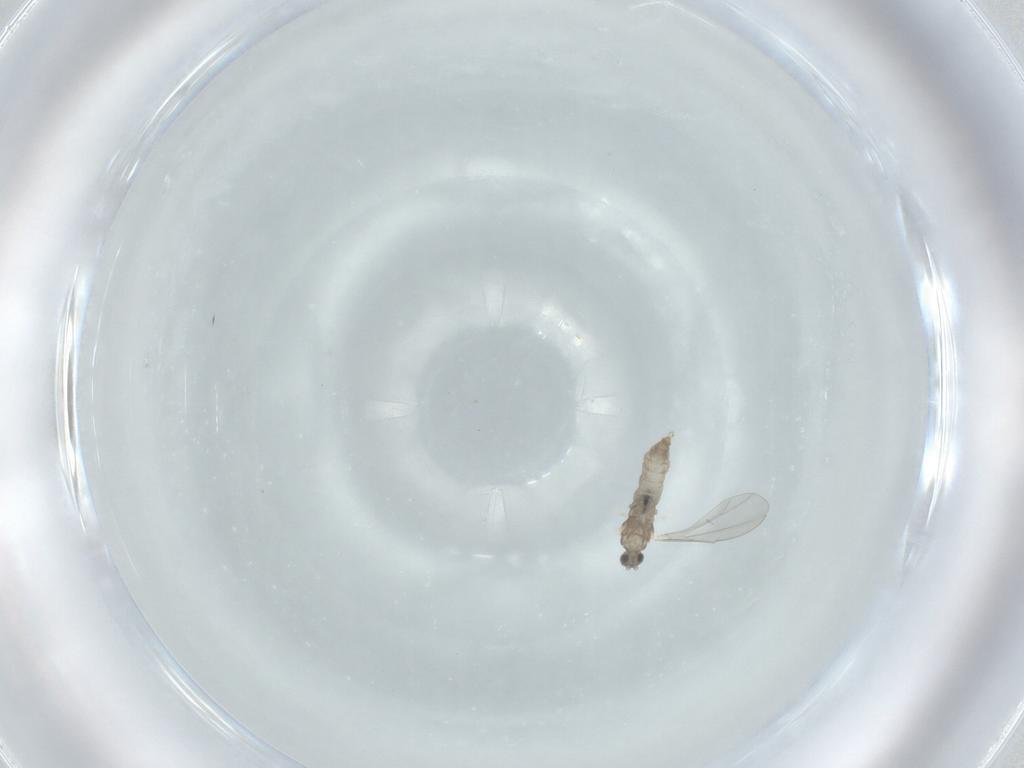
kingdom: Animalia
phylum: Arthropoda
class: Insecta
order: Diptera
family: Cecidomyiidae
